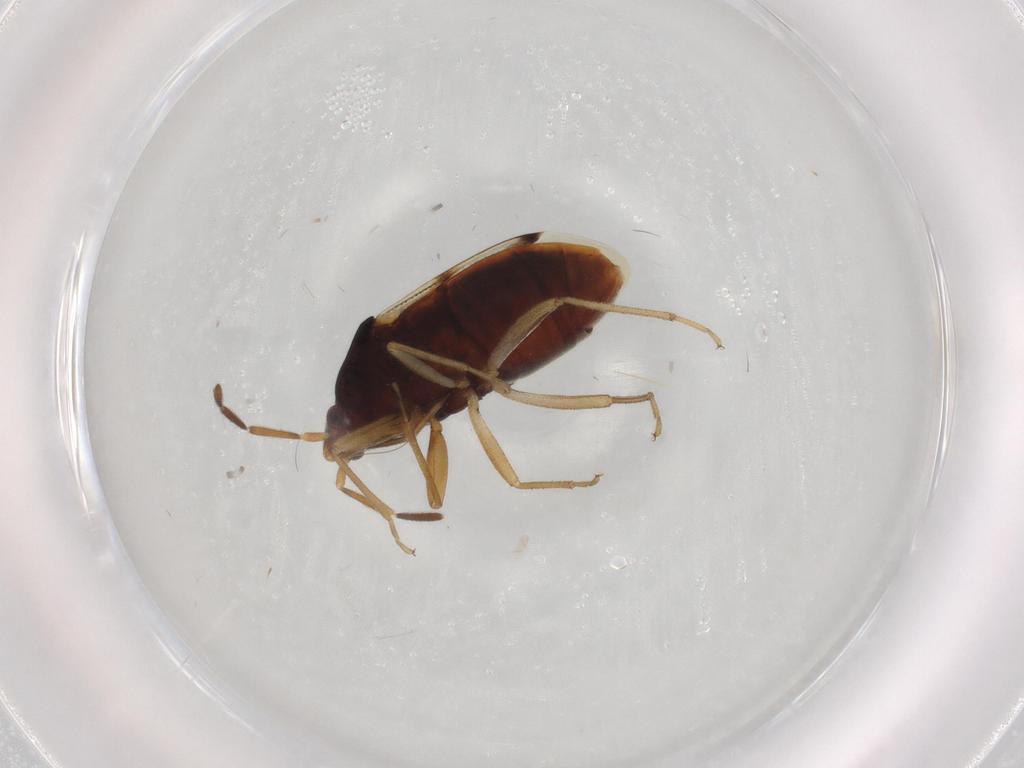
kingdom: Animalia
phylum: Arthropoda
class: Insecta
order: Hemiptera
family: Rhyparochromidae
